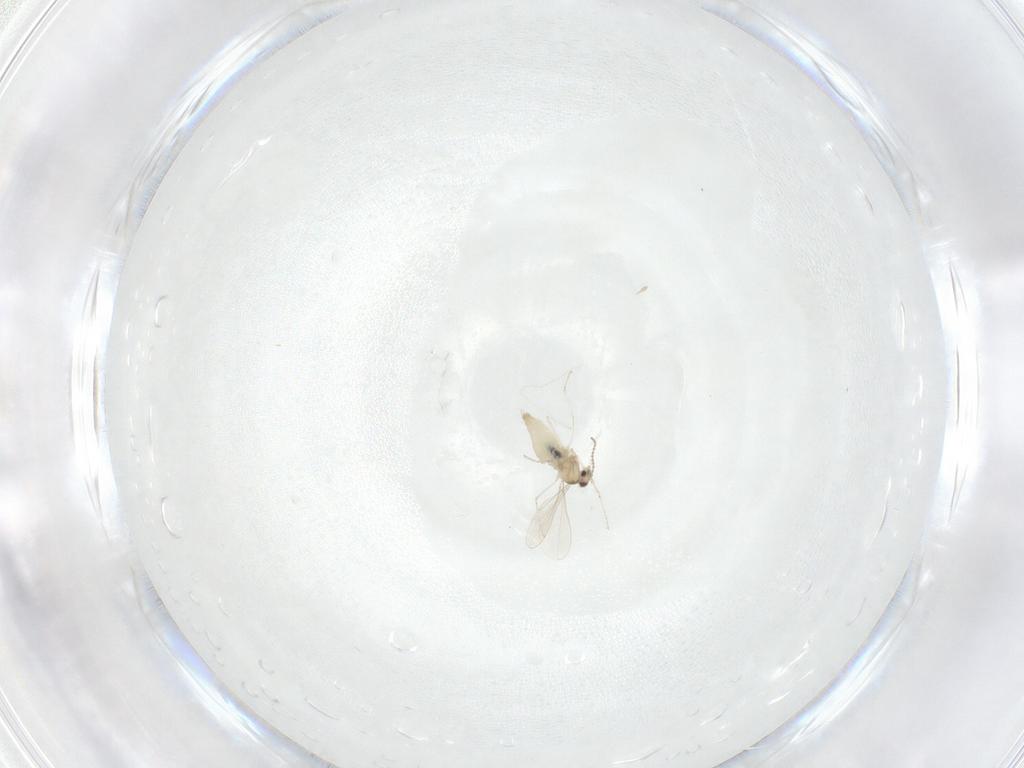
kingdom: Animalia
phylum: Arthropoda
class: Insecta
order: Diptera
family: Cecidomyiidae
